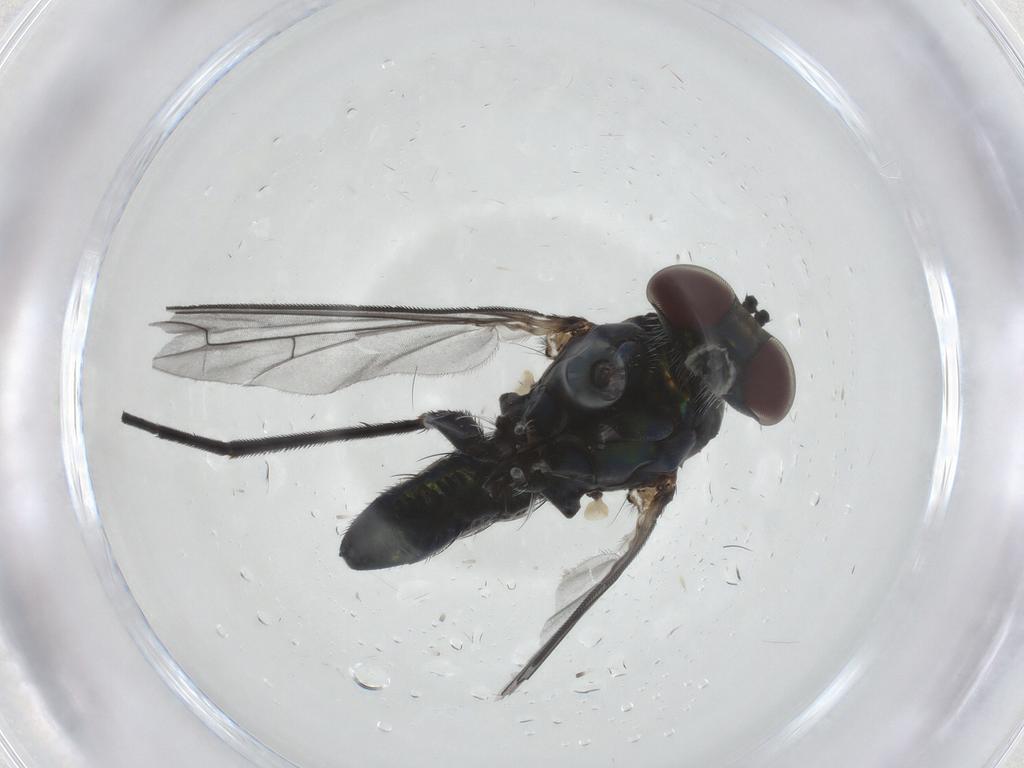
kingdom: Animalia
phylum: Arthropoda
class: Insecta
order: Diptera
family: Dolichopodidae
